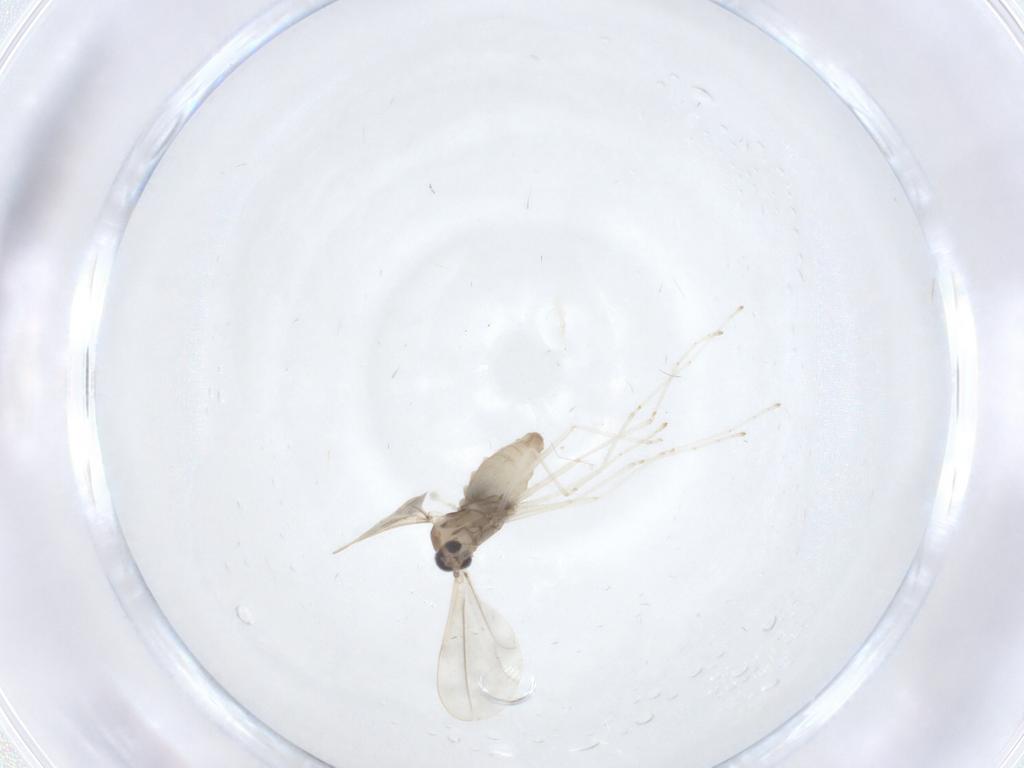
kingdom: Animalia
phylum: Arthropoda
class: Insecta
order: Diptera
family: Cecidomyiidae
